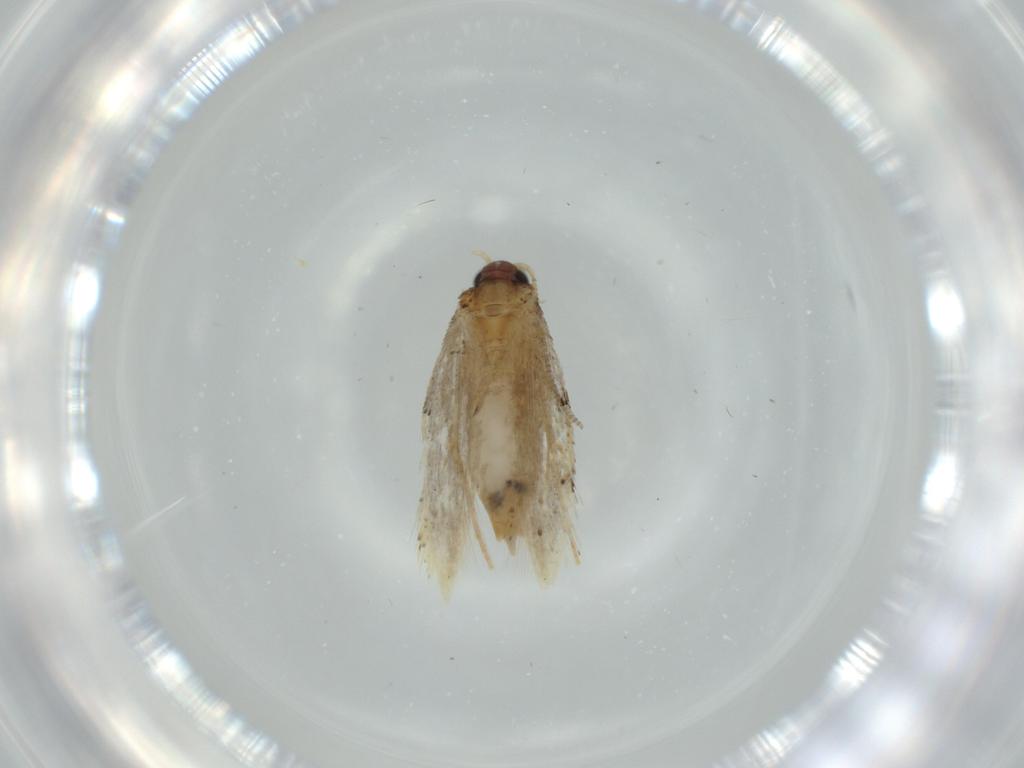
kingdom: Animalia
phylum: Arthropoda
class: Insecta
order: Lepidoptera
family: Tineidae
